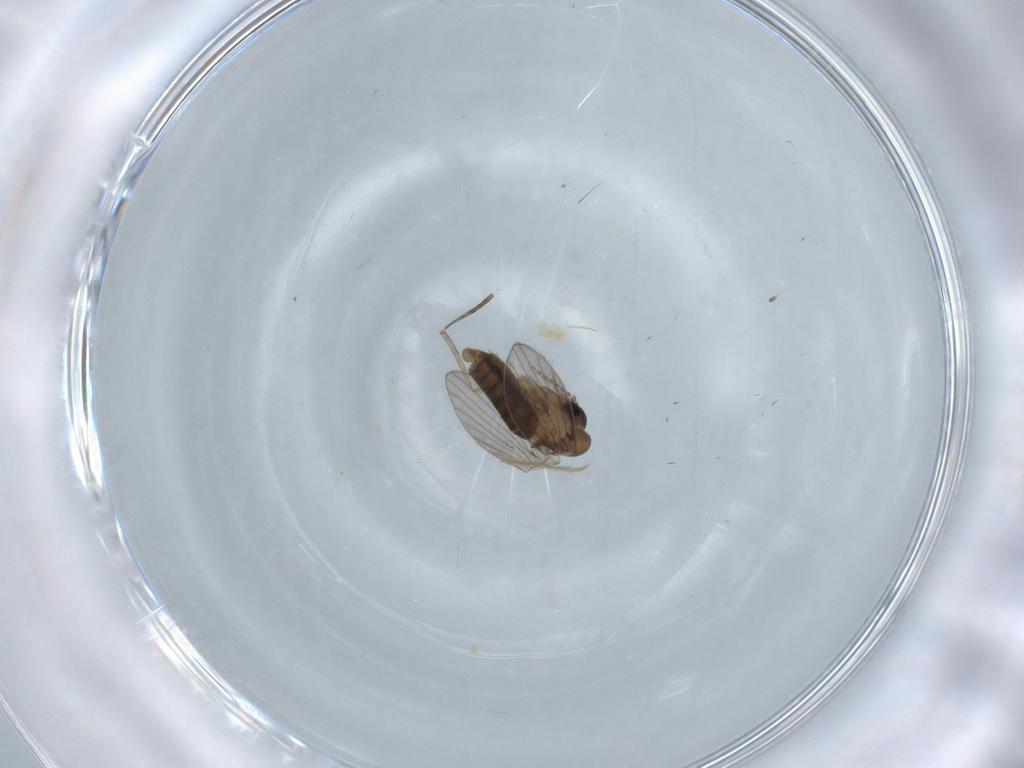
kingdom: Animalia
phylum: Arthropoda
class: Insecta
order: Diptera
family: Psychodidae
